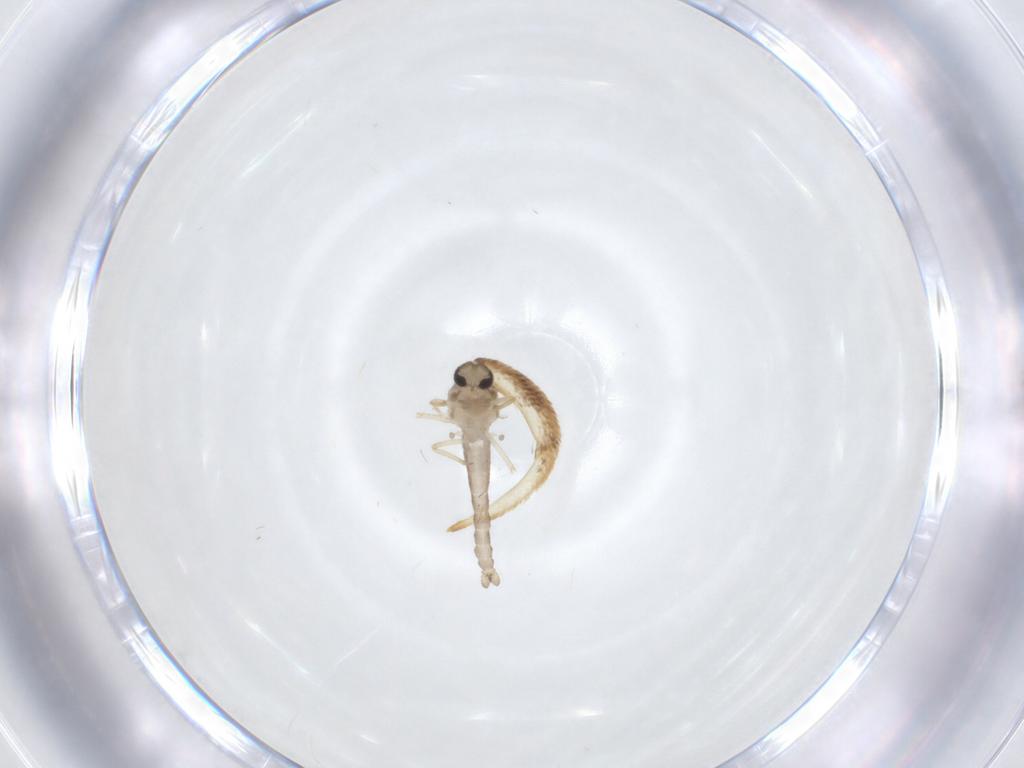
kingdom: Animalia
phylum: Arthropoda
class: Insecta
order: Diptera
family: Ceratopogonidae
